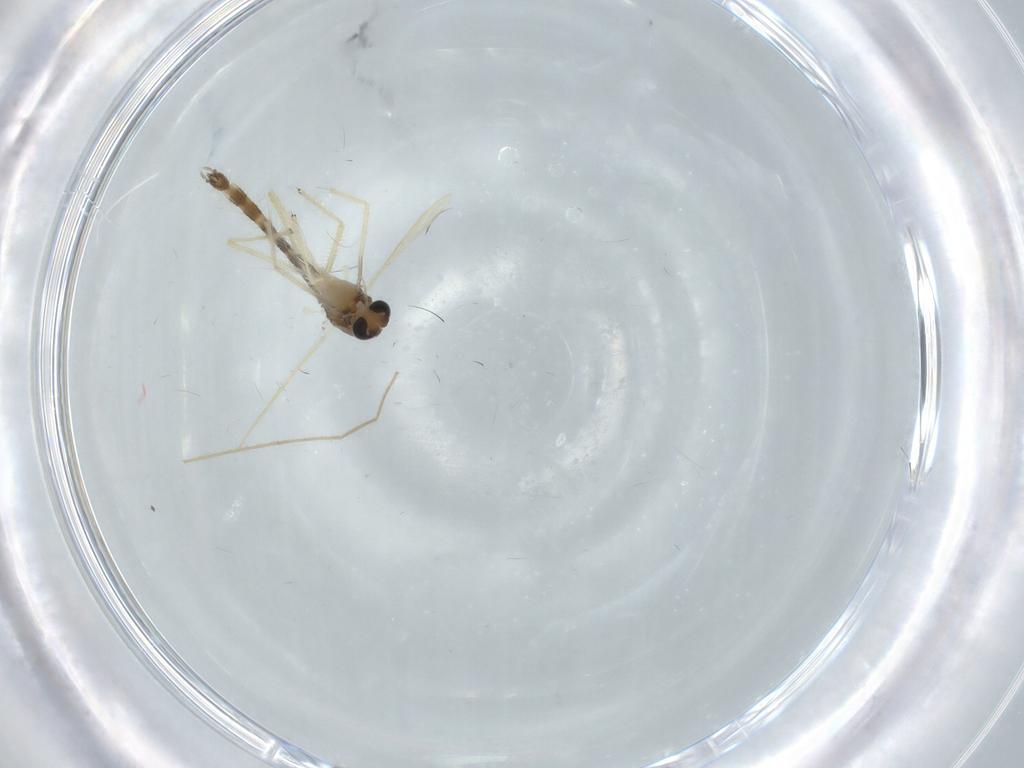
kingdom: Animalia
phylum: Arthropoda
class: Insecta
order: Diptera
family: Chironomidae
